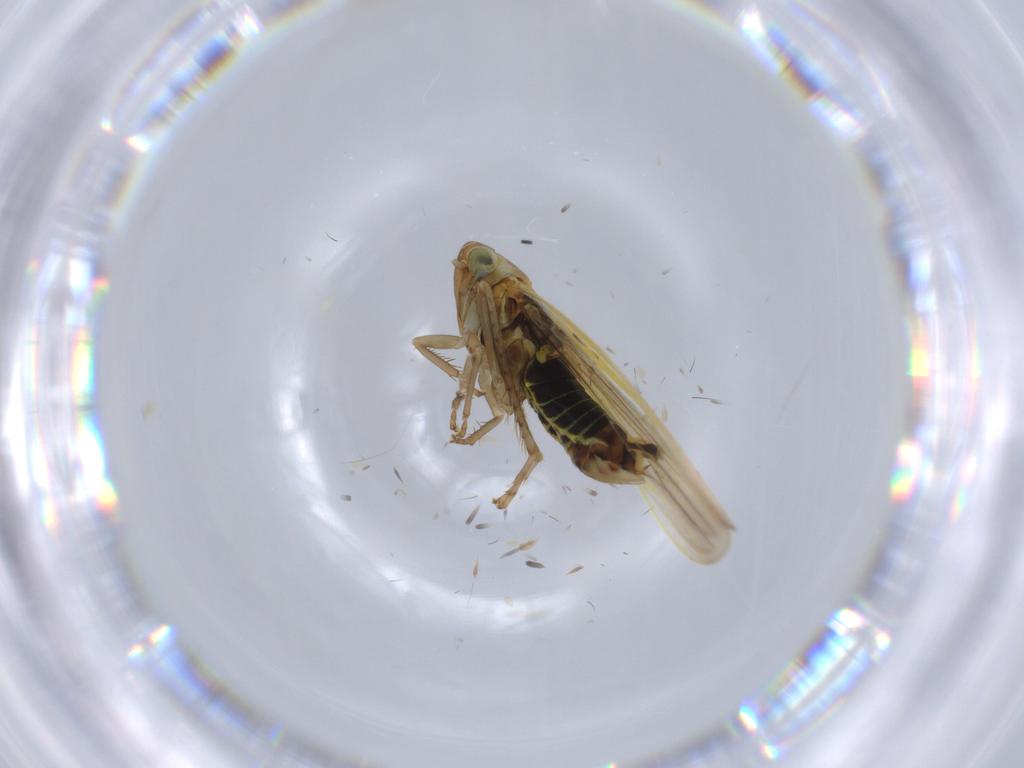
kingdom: Animalia
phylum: Arthropoda
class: Insecta
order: Hemiptera
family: Cicadellidae
